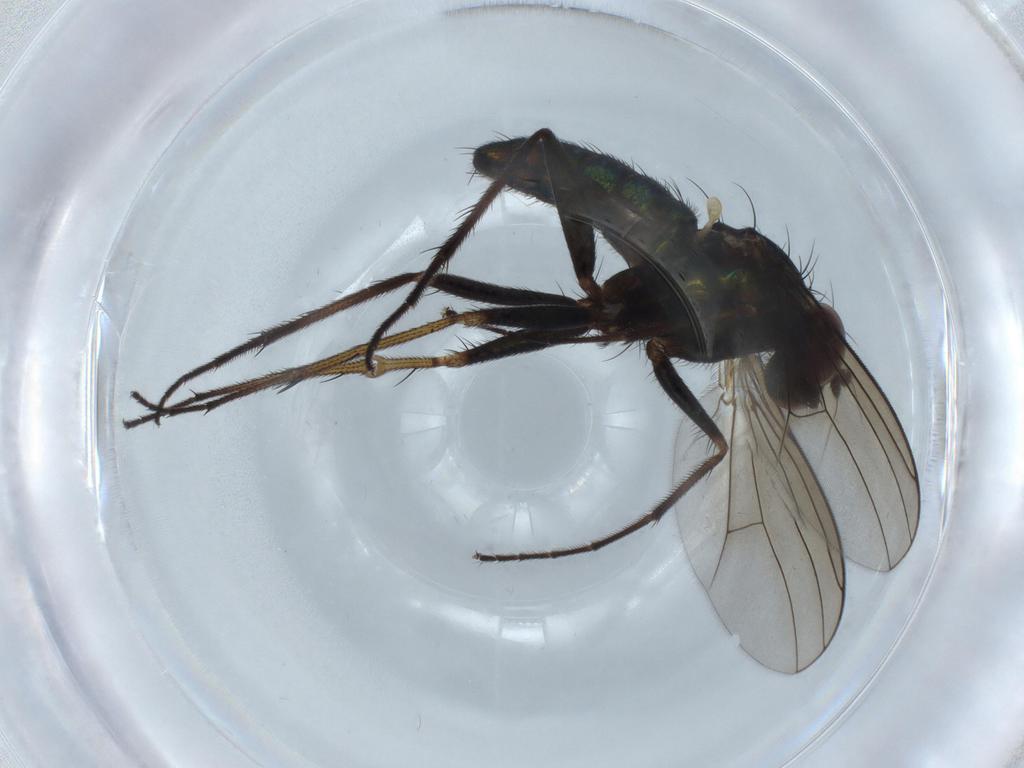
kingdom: Animalia
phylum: Arthropoda
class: Insecta
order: Diptera
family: Dolichopodidae
